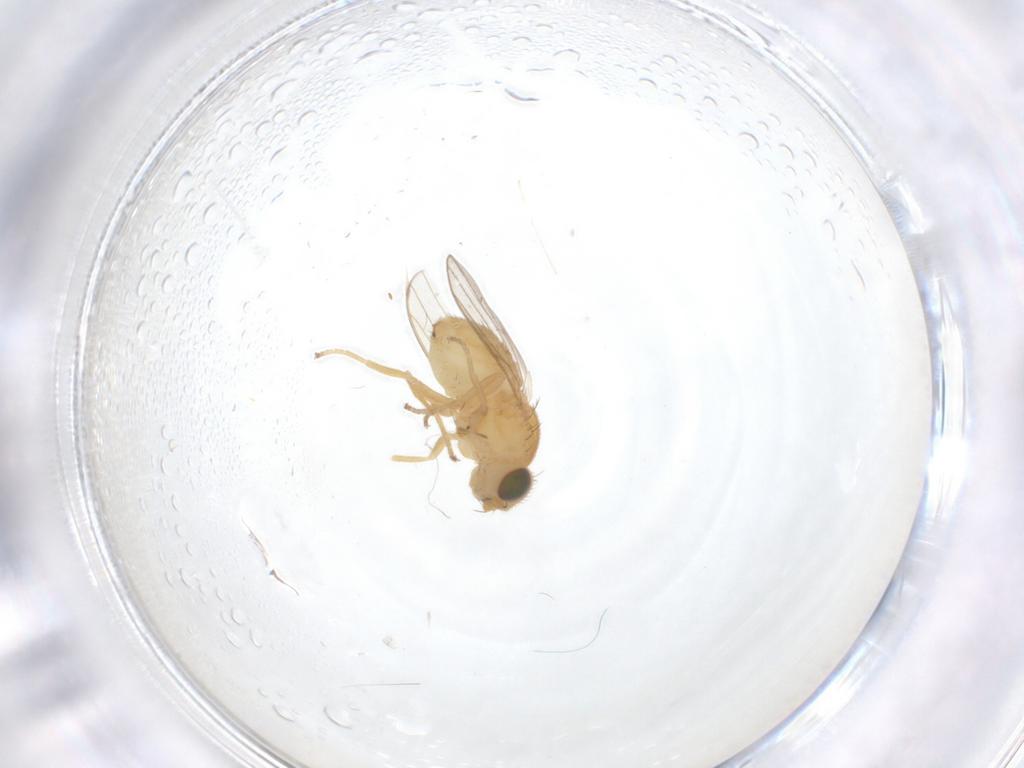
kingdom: Animalia
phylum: Arthropoda
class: Insecta
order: Diptera
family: Chloropidae
